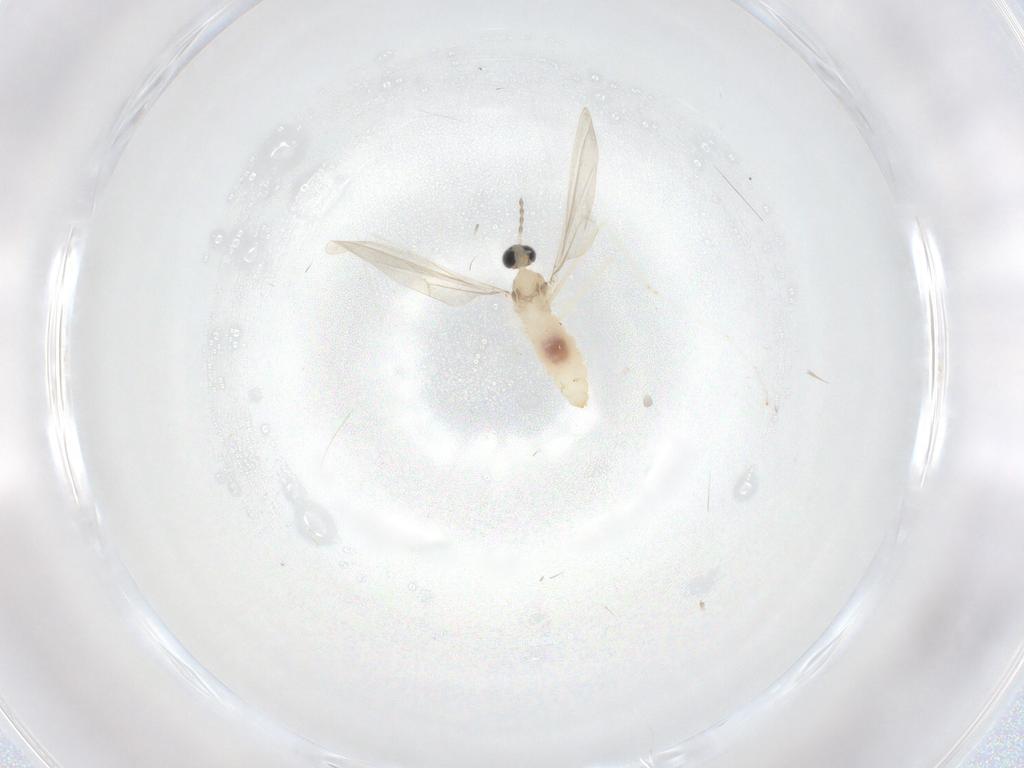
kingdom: Animalia
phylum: Arthropoda
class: Insecta
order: Diptera
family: Cecidomyiidae
